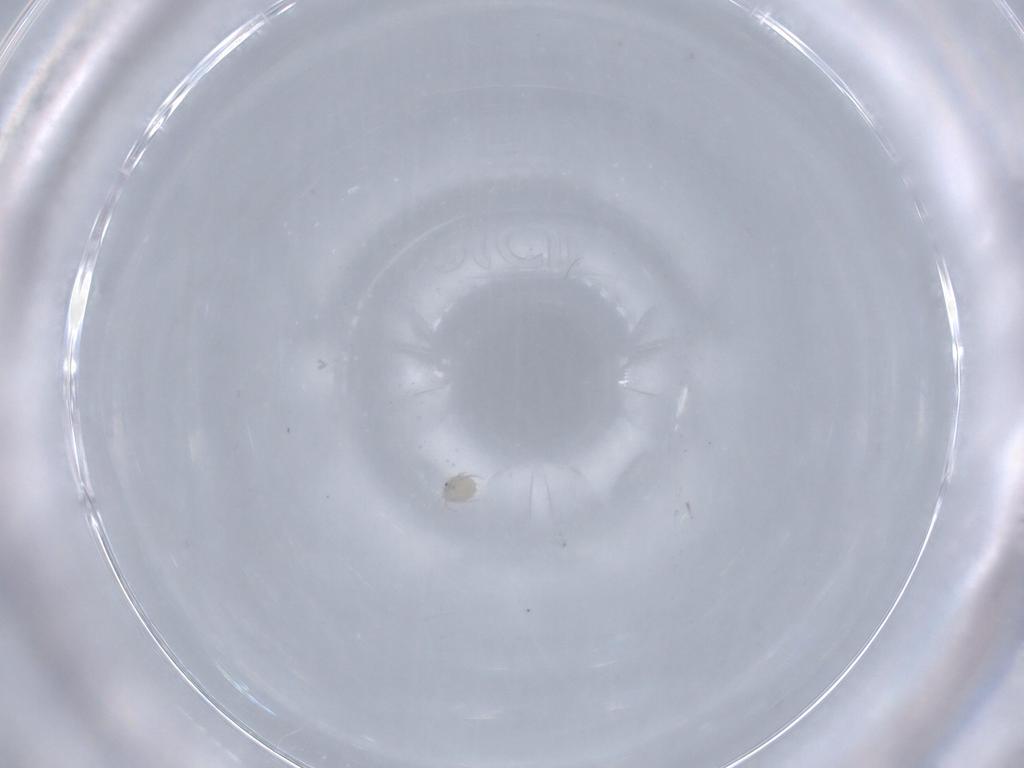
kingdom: Animalia
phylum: Arthropoda
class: Arachnida
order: Trombidiformes
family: Lebertiidae
